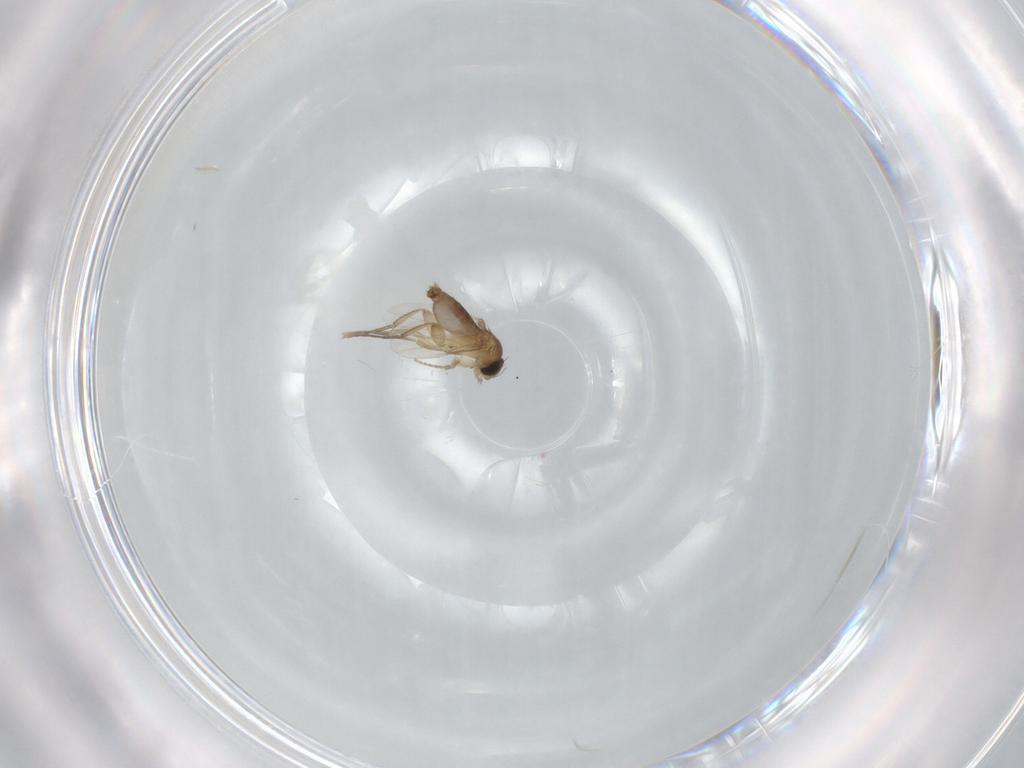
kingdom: Animalia
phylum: Arthropoda
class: Insecta
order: Diptera
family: Phoridae
